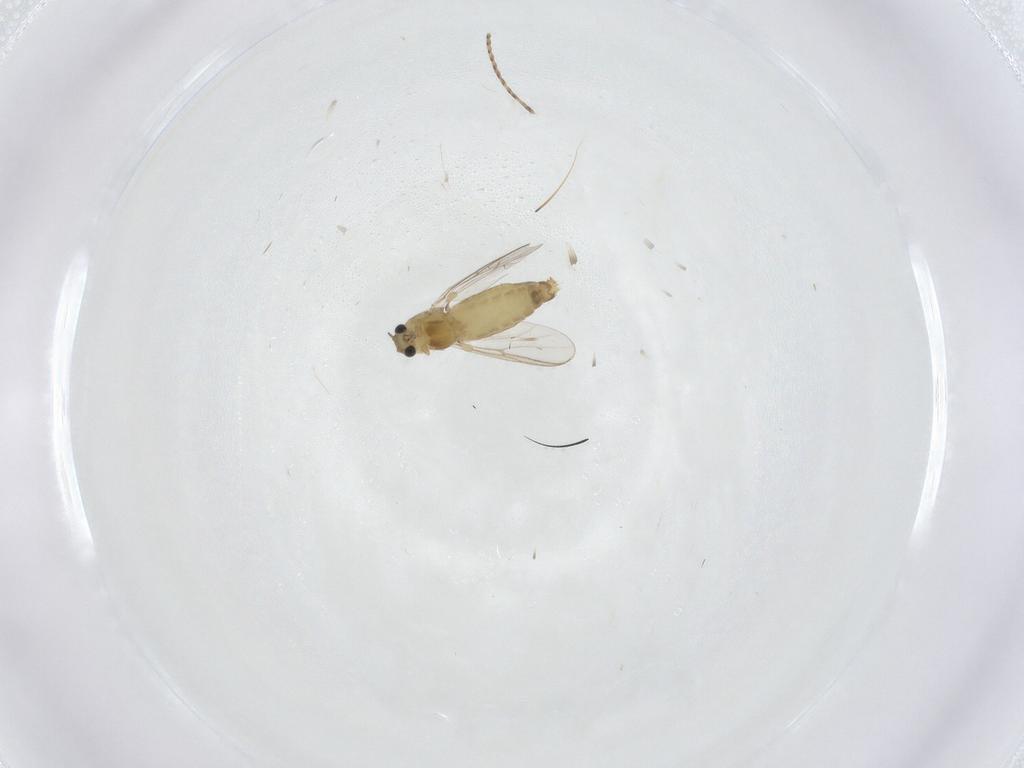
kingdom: Animalia
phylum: Arthropoda
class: Insecta
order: Diptera
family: Chironomidae
